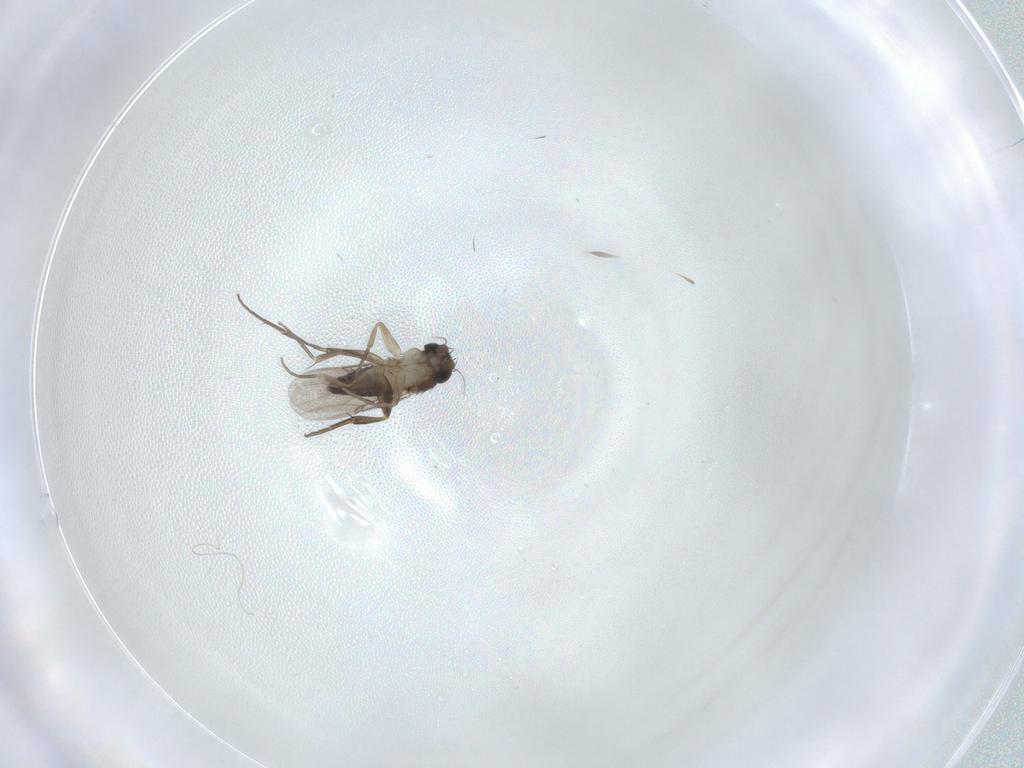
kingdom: Animalia
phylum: Arthropoda
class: Insecta
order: Diptera
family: Phoridae
